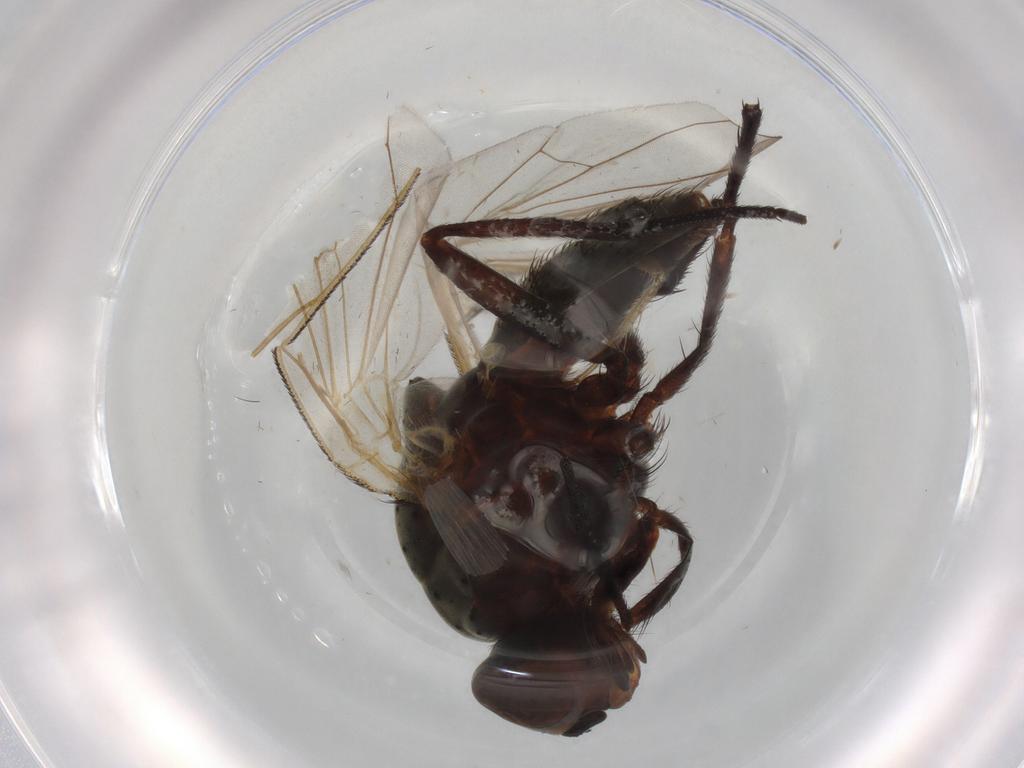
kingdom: Animalia
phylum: Arthropoda
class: Insecta
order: Diptera
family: Anthomyiidae
